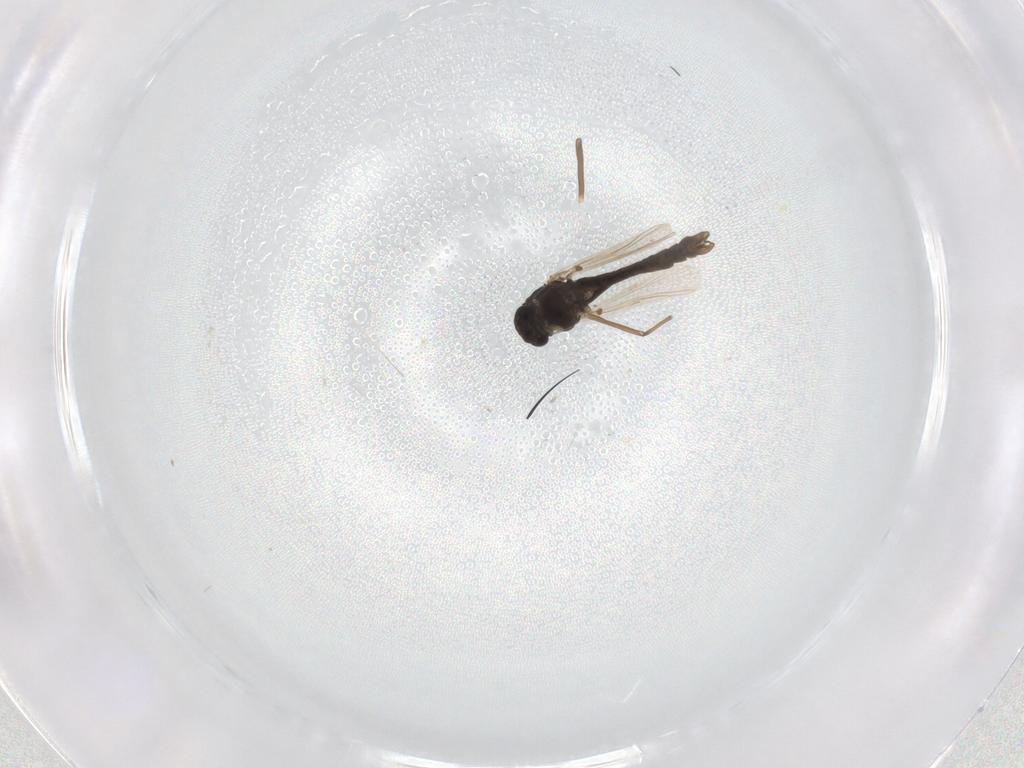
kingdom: Animalia
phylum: Arthropoda
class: Insecta
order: Diptera
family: Chironomidae
